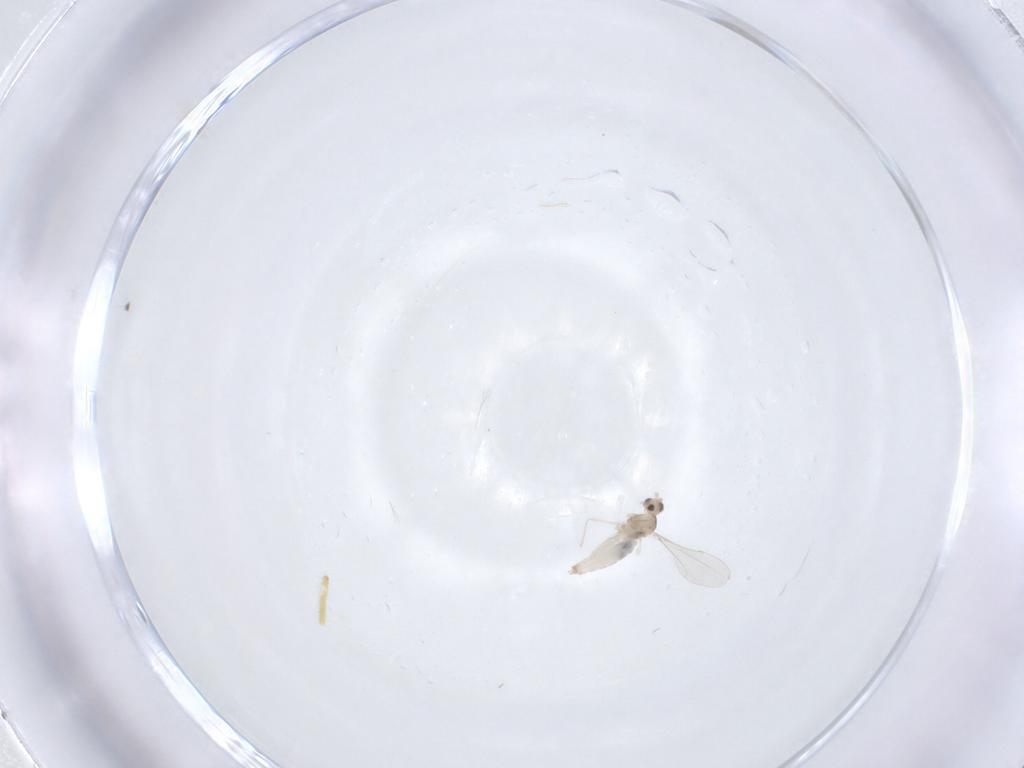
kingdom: Animalia
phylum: Arthropoda
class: Insecta
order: Diptera
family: Cecidomyiidae
